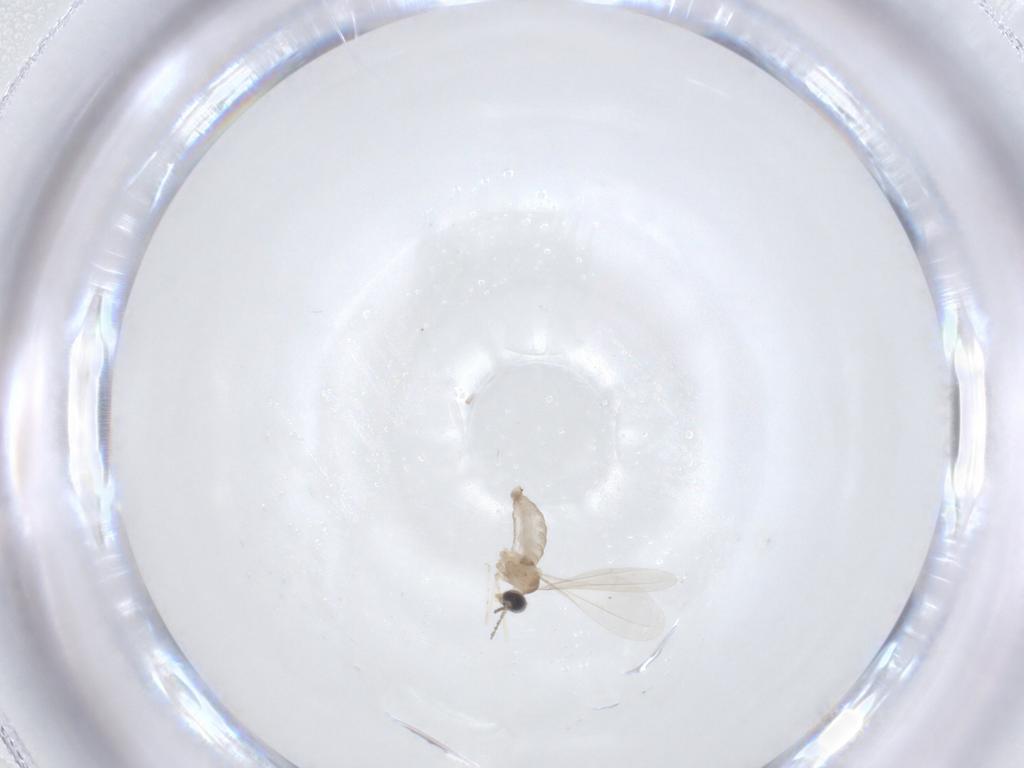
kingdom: Animalia
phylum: Arthropoda
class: Insecta
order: Diptera
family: Cecidomyiidae
